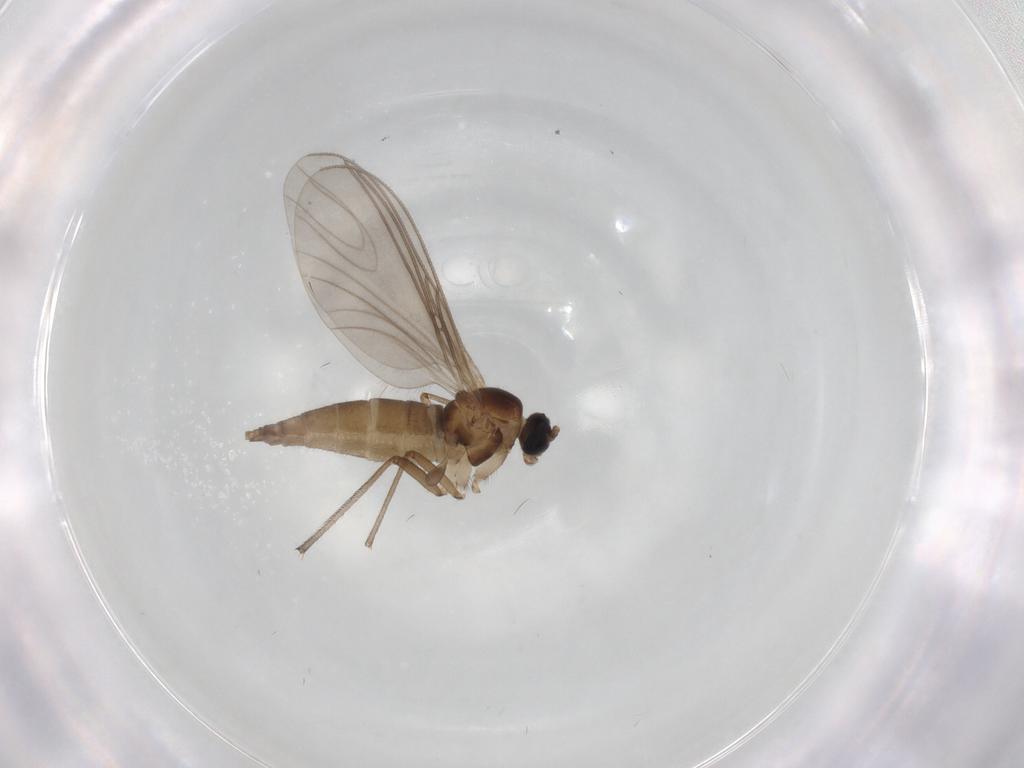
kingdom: Animalia
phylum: Arthropoda
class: Insecta
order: Diptera
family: Sciaridae
